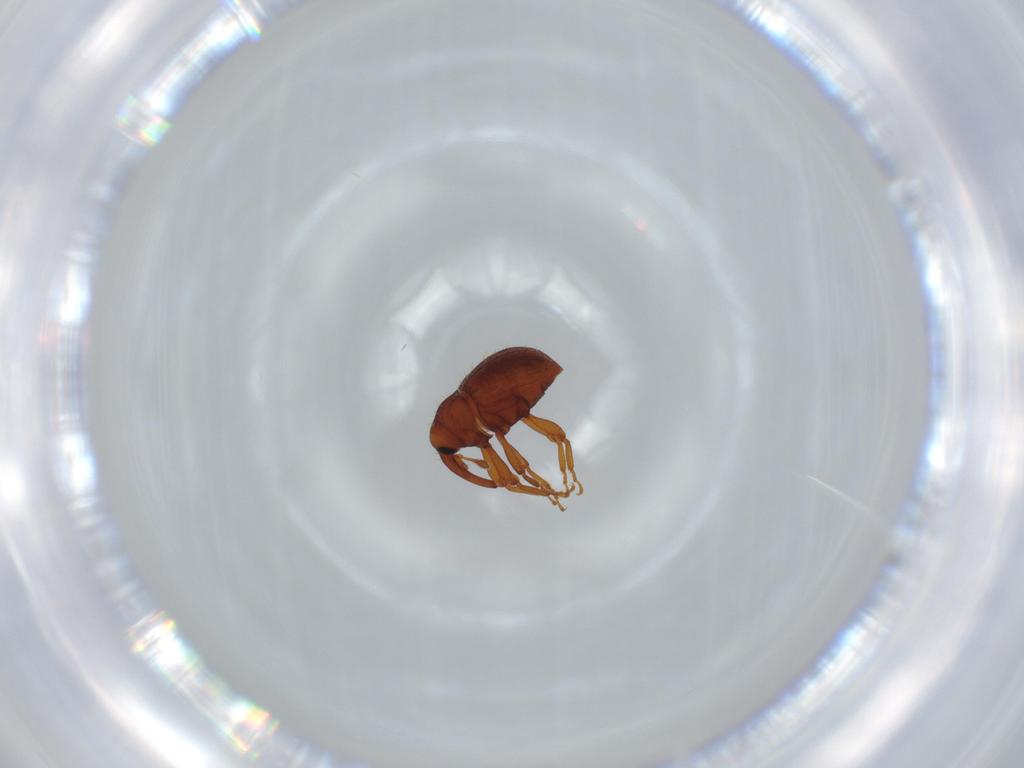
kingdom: Animalia
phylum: Arthropoda
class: Insecta
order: Coleoptera
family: Curculionidae
